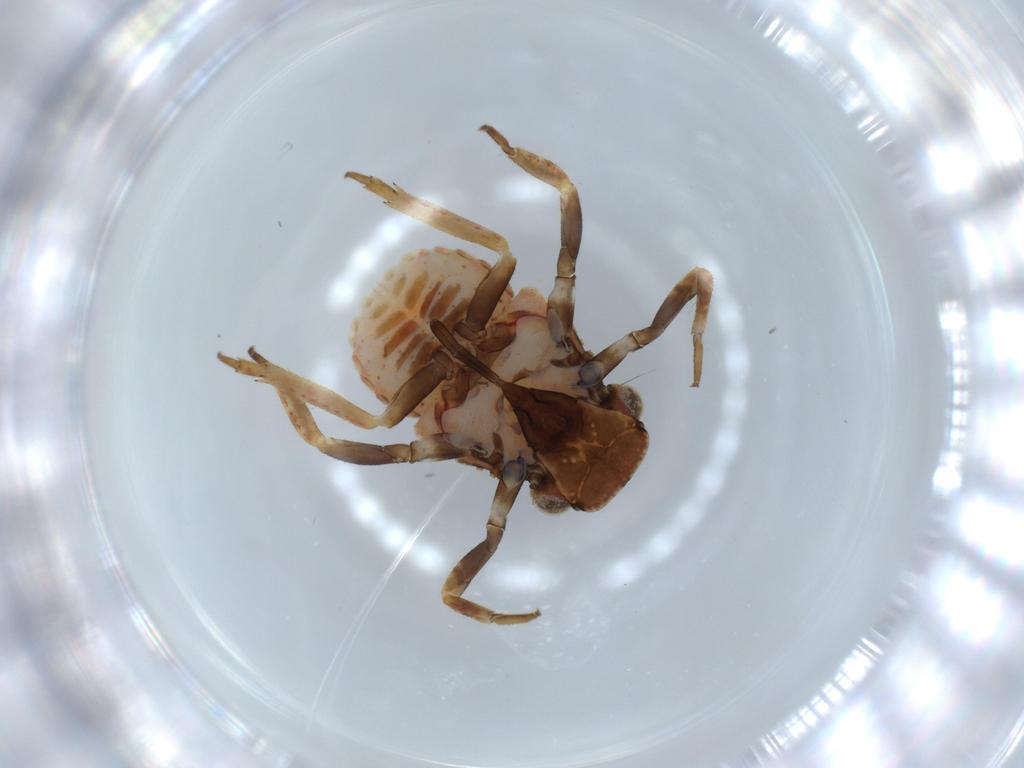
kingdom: Animalia
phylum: Arthropoda
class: Insecta
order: Hemiptera
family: Fulgoridae
